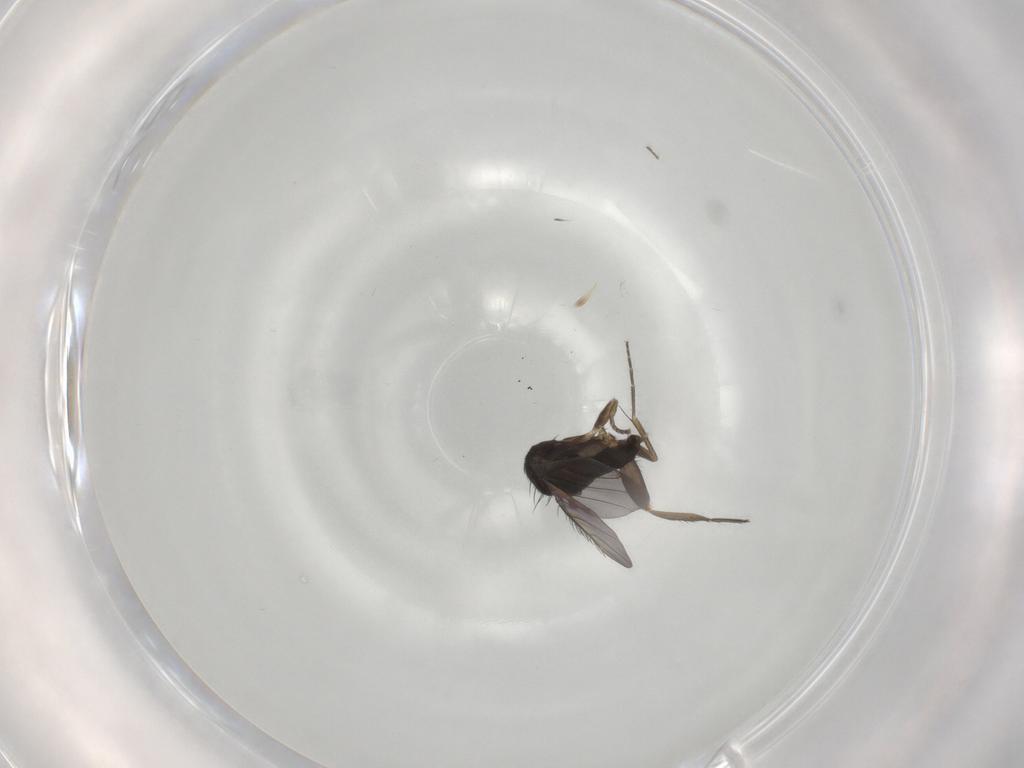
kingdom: Animalia
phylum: Arthropoda
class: Insecta
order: Diptera
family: Phoridae
